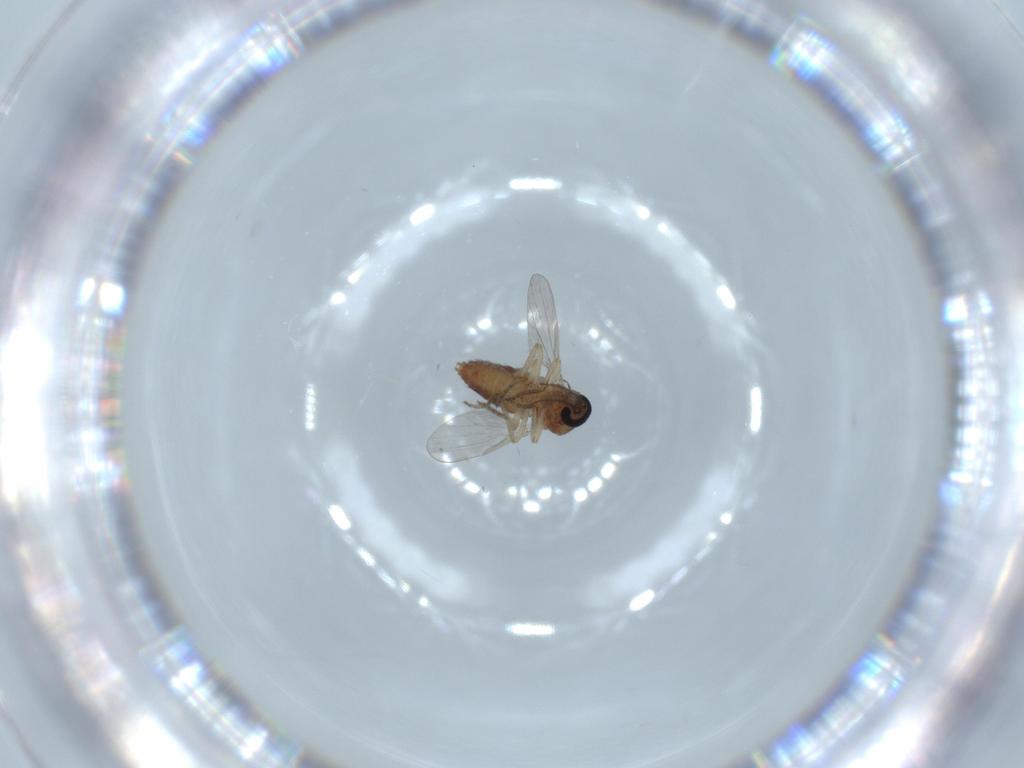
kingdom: Animalia
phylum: Arthropoda
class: Insecta
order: Diptera
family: Ceratopogonidae
